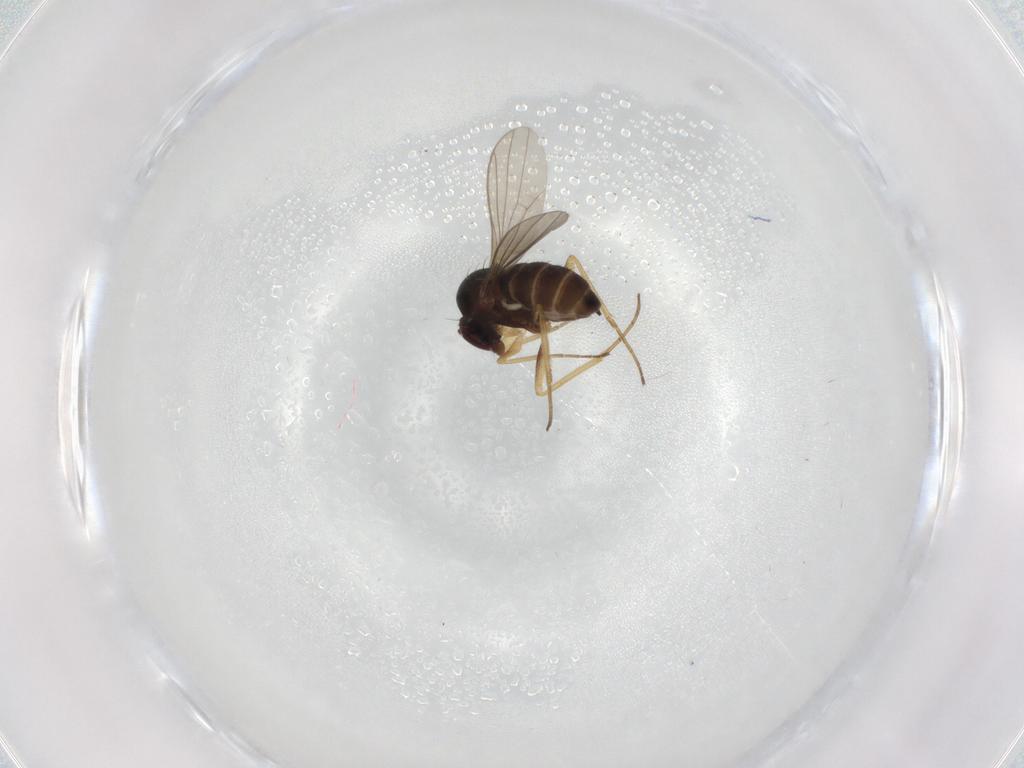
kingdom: Animalia
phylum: Arthropoda
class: Insecta
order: Diptera
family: Dolichopodidae
